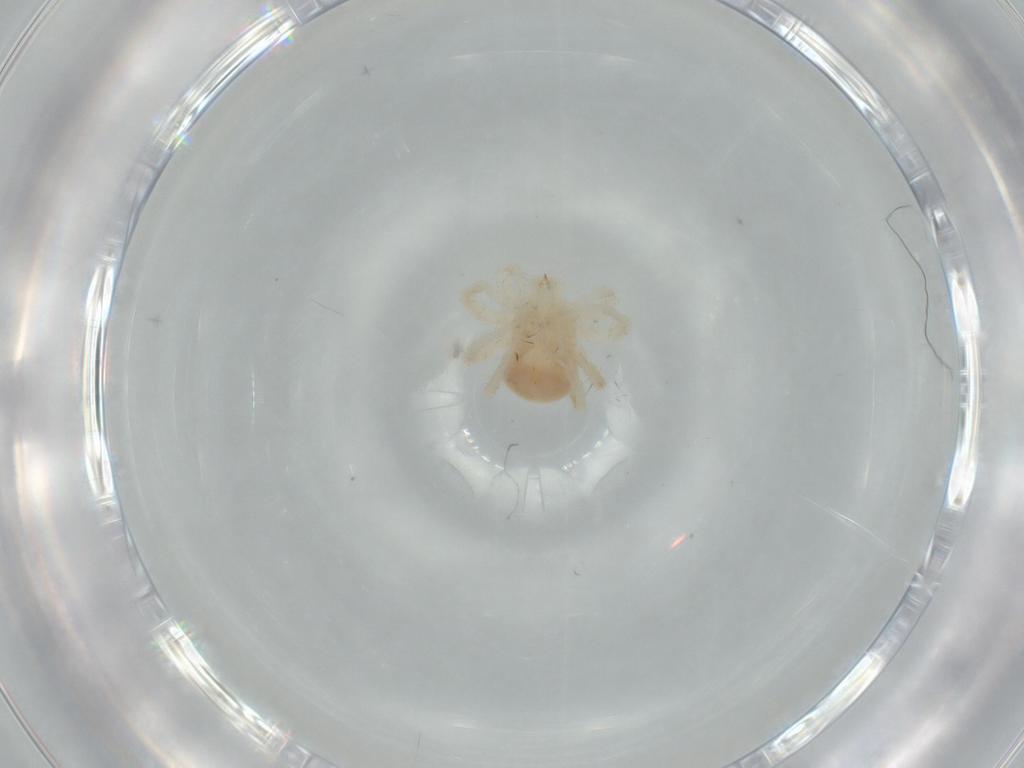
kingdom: Animalia
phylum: Arthropoda
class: Arachnida
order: Trombidiformes
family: Anystidae
